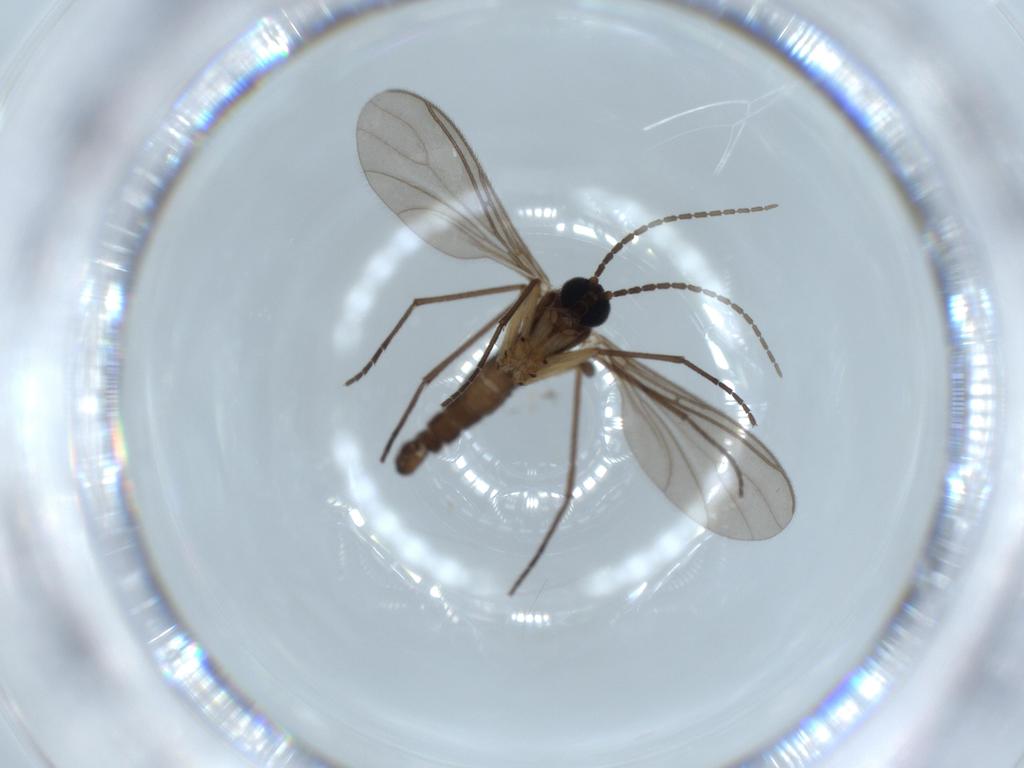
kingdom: Animalia
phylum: Arthropoda
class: Insecta
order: Diptera
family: Sciaridae
